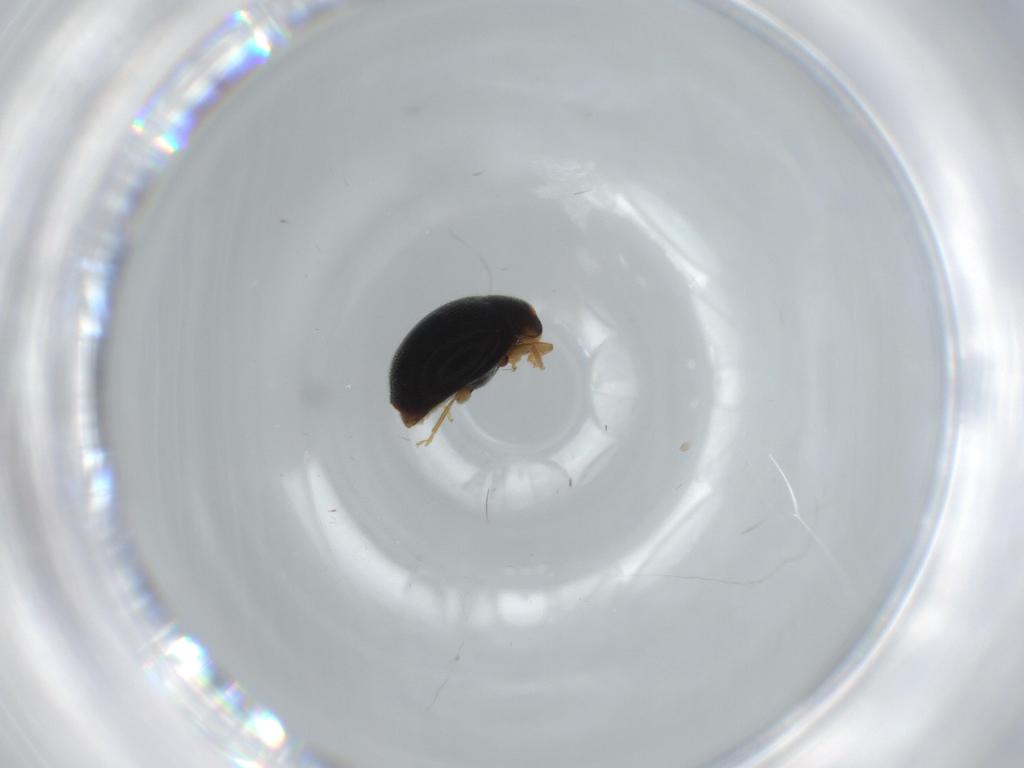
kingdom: Animalia
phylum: Arthropoda
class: Insecta
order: Coleoptera
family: Coccinellidae
